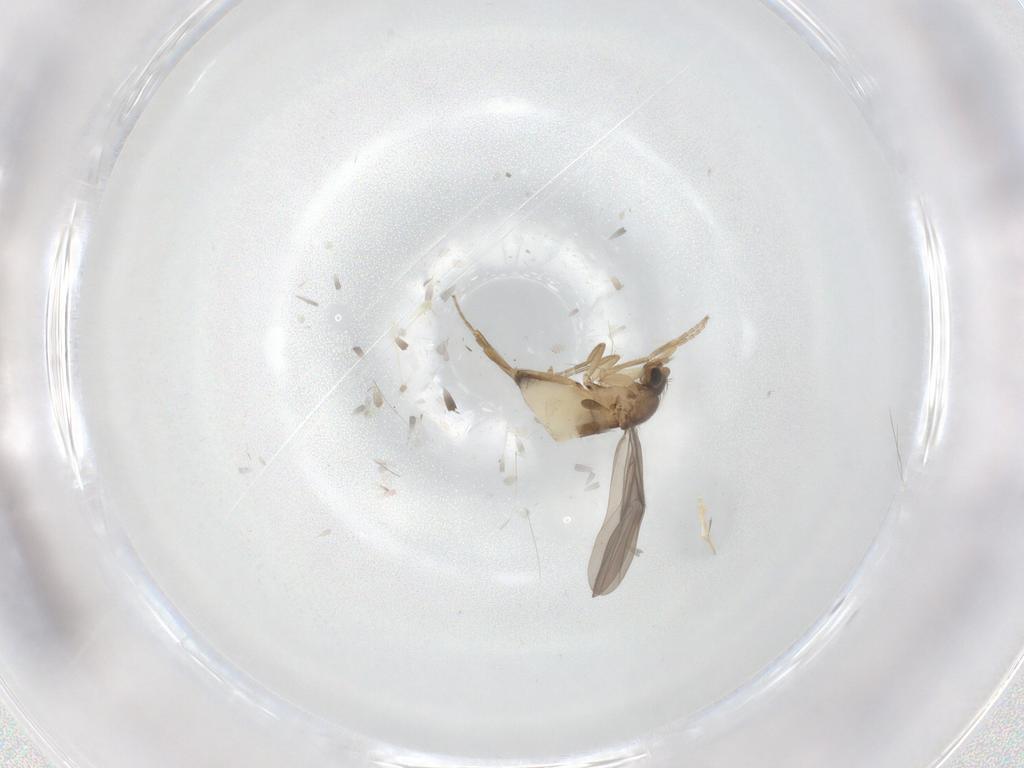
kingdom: Animalia
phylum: Arthropoda
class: Insecta
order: Diptera
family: Phoridae
